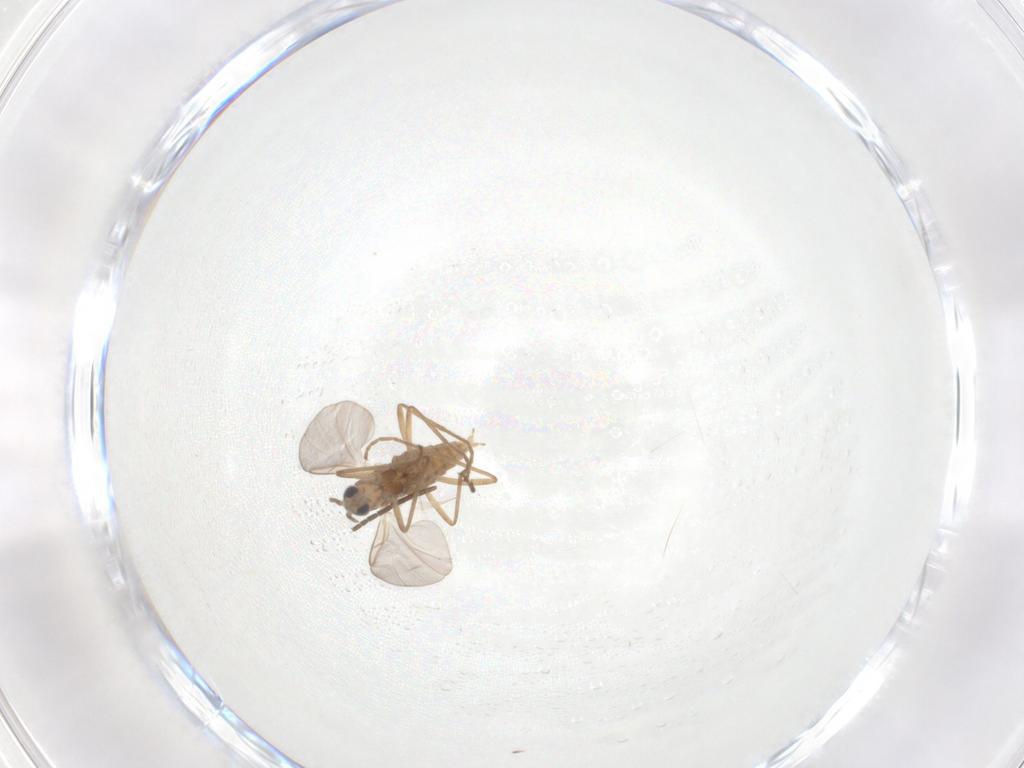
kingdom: Animalia
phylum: Arthropoda
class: Insecta
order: Diptera
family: Cecidomyiidae
